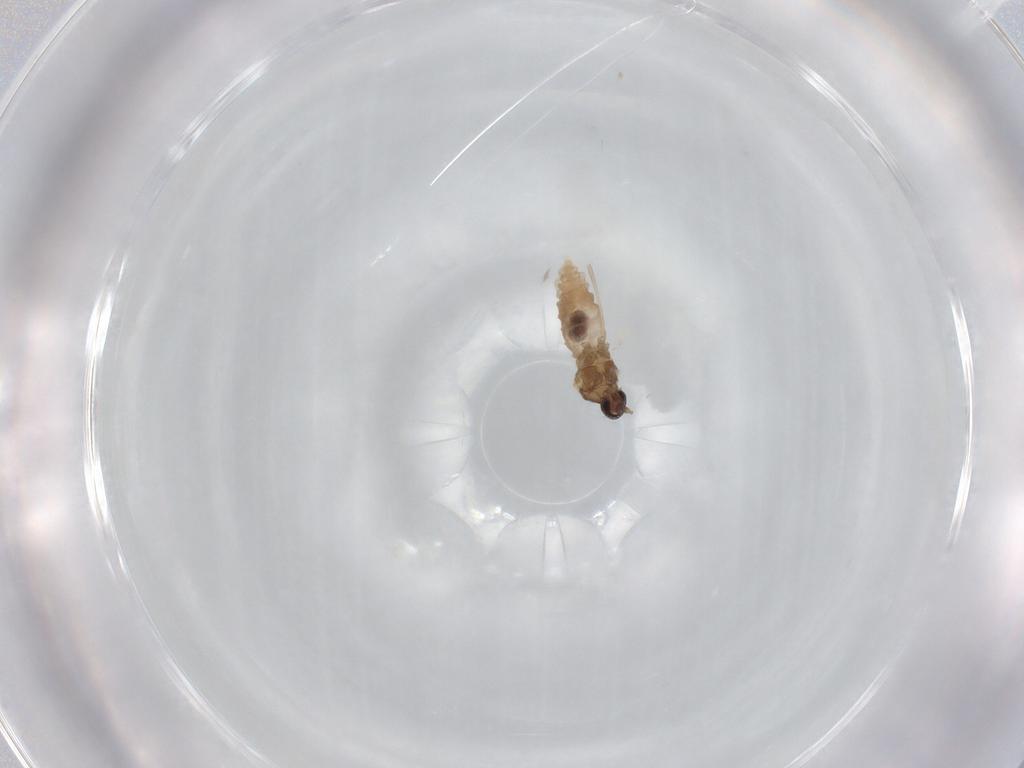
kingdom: Animalia
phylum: Arthropoda
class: Insecta
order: Diptera
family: Cecidomyiidae
